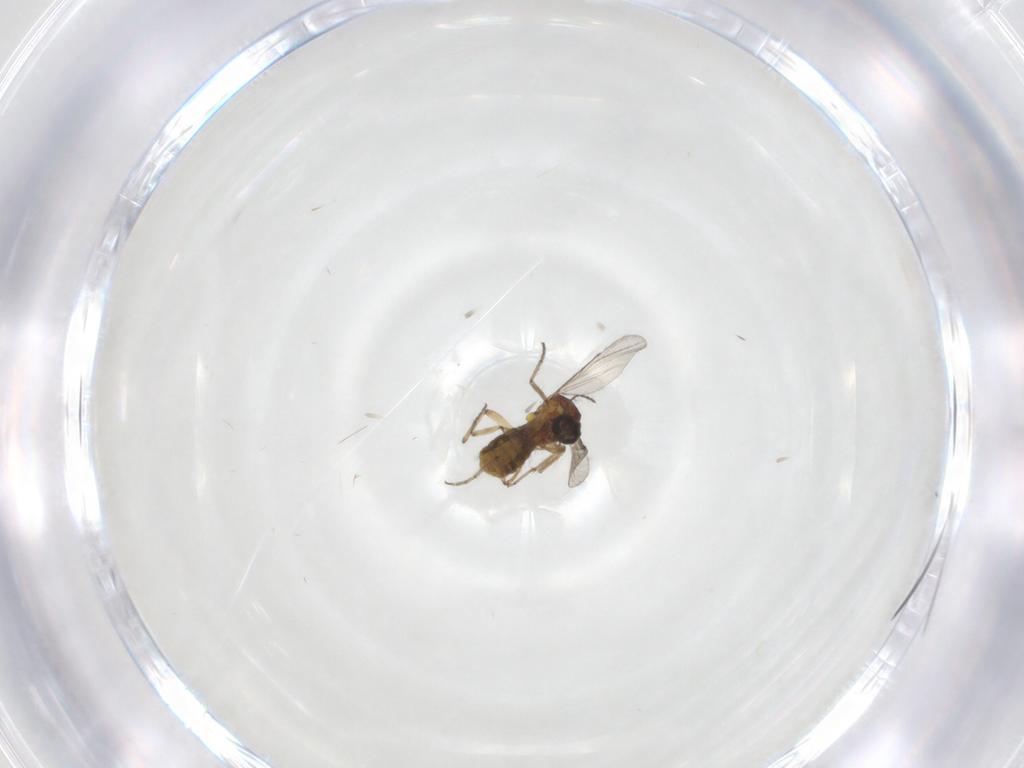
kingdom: Animalia
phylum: Arthropoda
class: Insecta
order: Diptera
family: Ceratopogonidae
